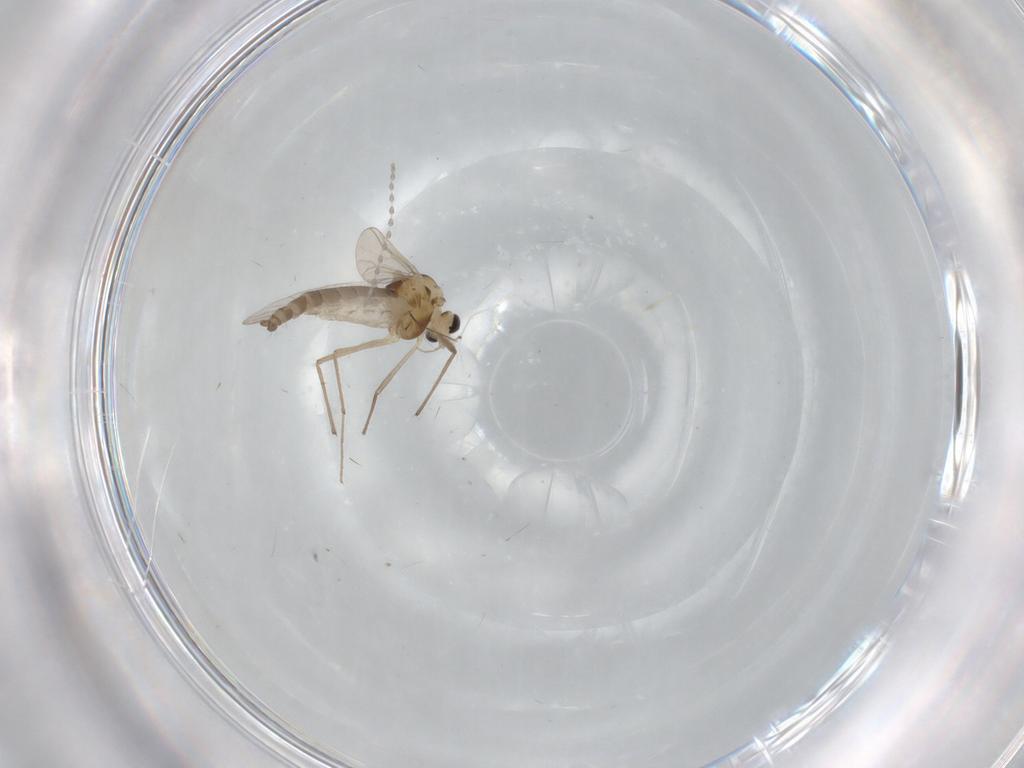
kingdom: Animalia
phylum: Arthropoda
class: Insecta
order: Diptera
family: Chironomidae
